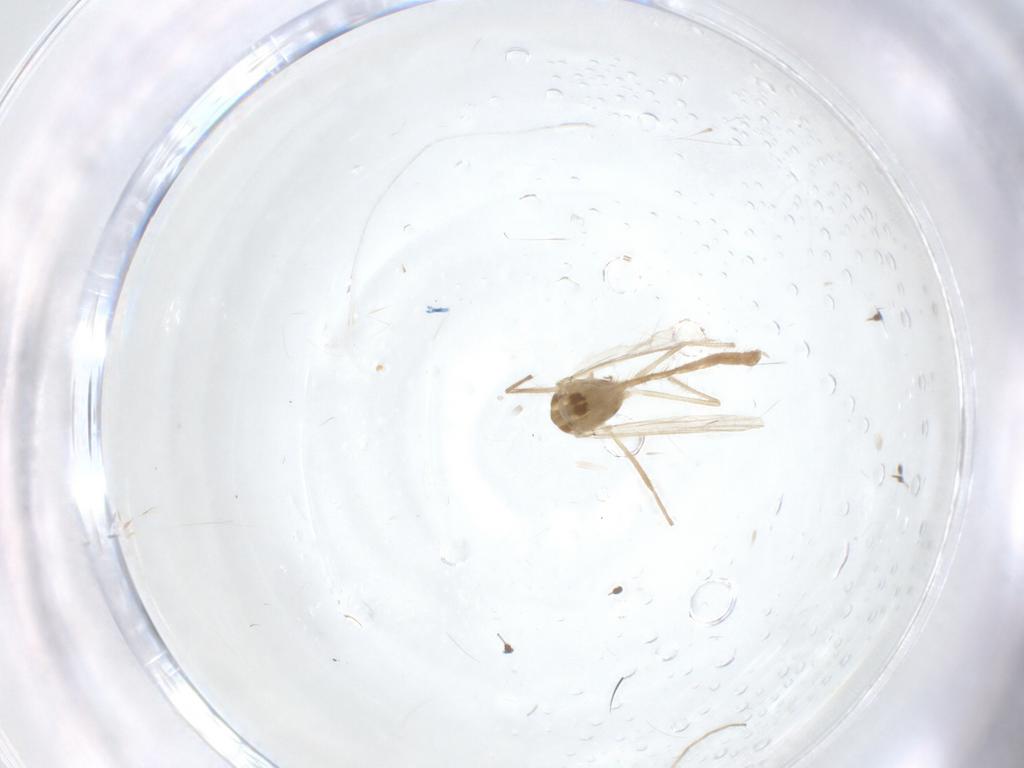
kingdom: Animalia
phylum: Arthropoda
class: Insecta
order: Diptera
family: Chironomidae
